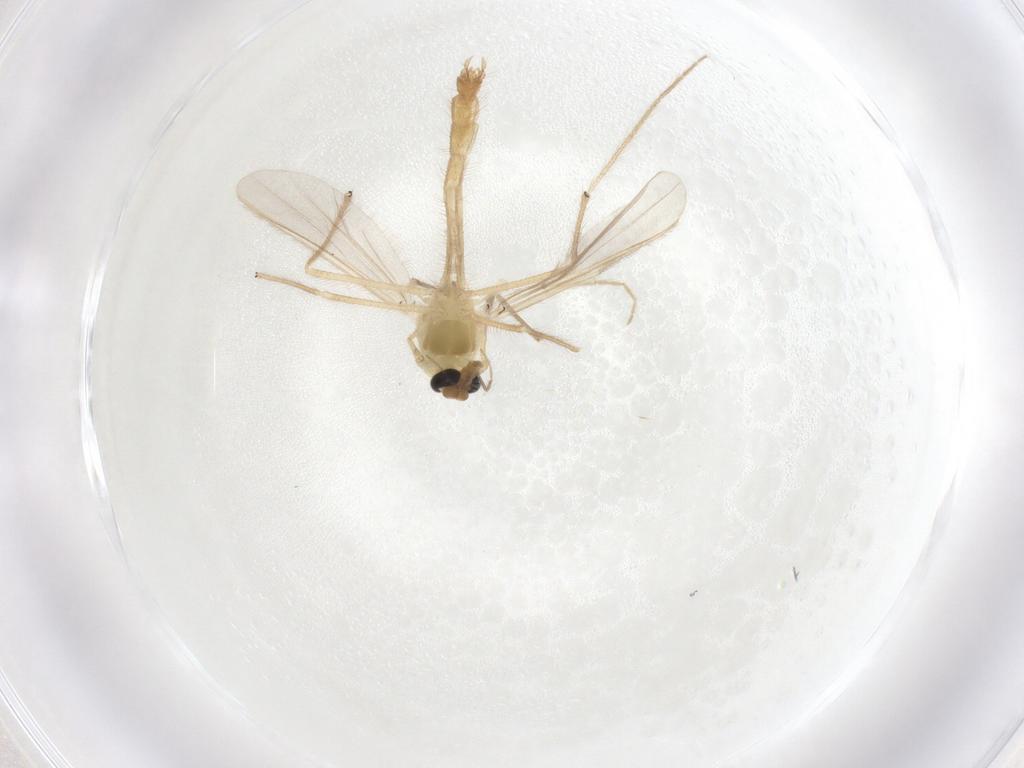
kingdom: Animalia
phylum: Arthropoda
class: Insecta
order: Diptera
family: Chironomidae
